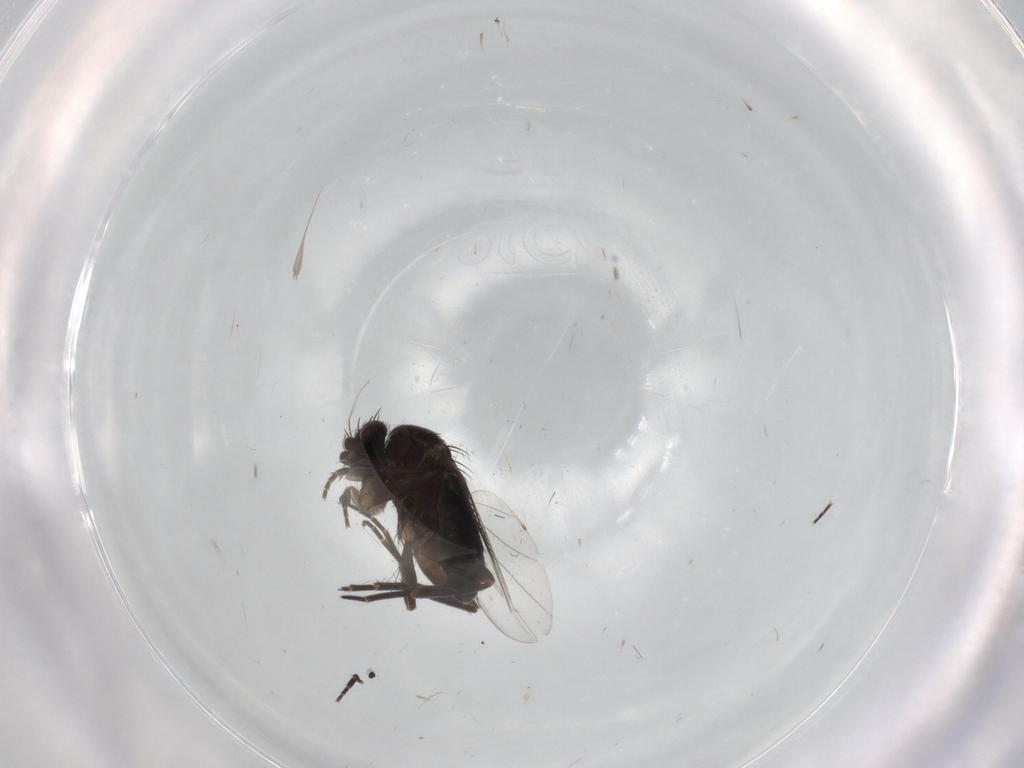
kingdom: Animalia
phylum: Arthropoda
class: Insecta
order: Diptera
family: Phoridae
